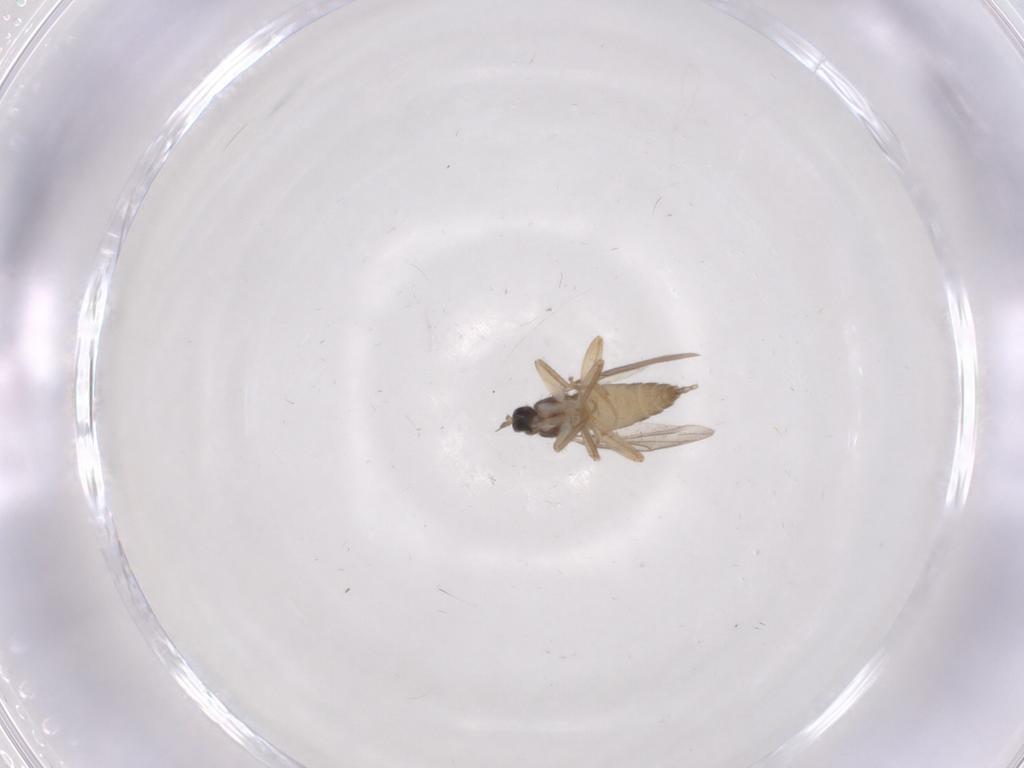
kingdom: Animalia
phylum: Arthropoda
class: Insecta
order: Diptera
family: Hybotidae
